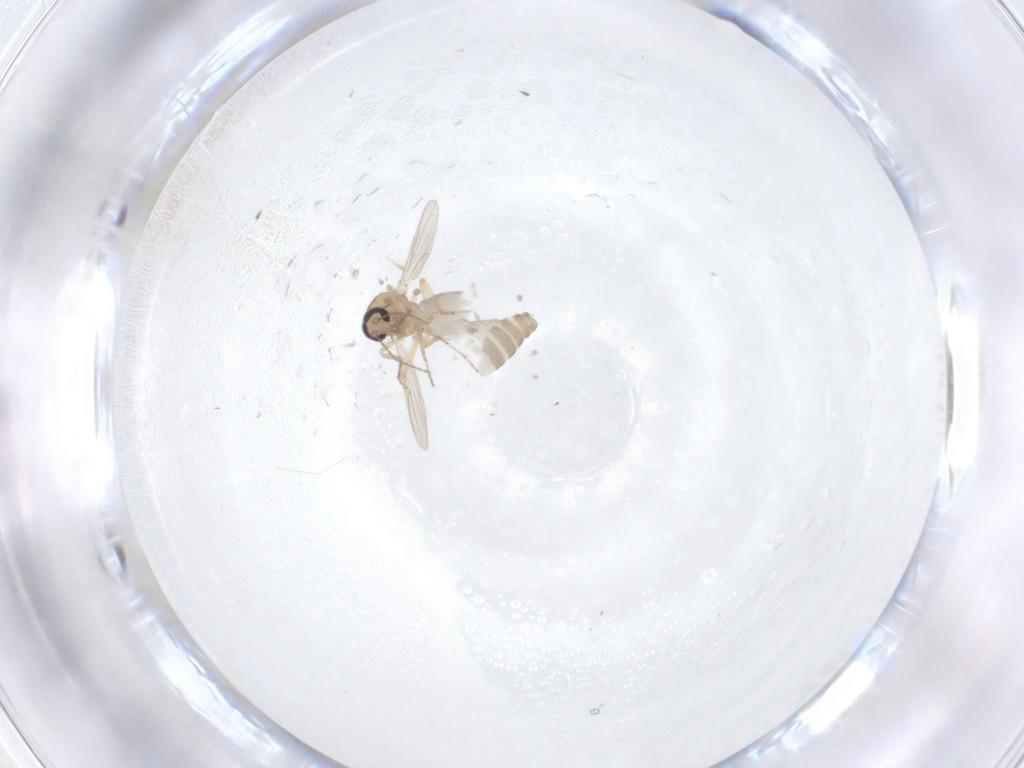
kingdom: Animalia
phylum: Arthropoda
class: Insecta
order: Diptera
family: Ceratopogonidae
